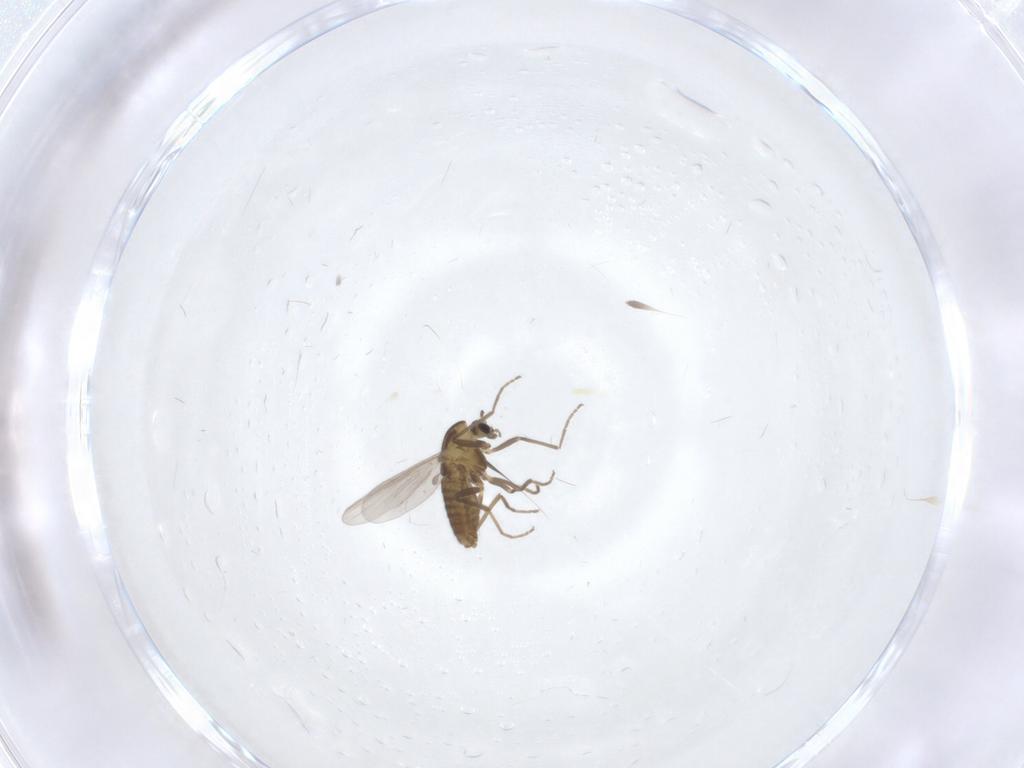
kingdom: Animalia
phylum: Arthropoda
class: Insecta
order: Diptera
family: Chironomidae
